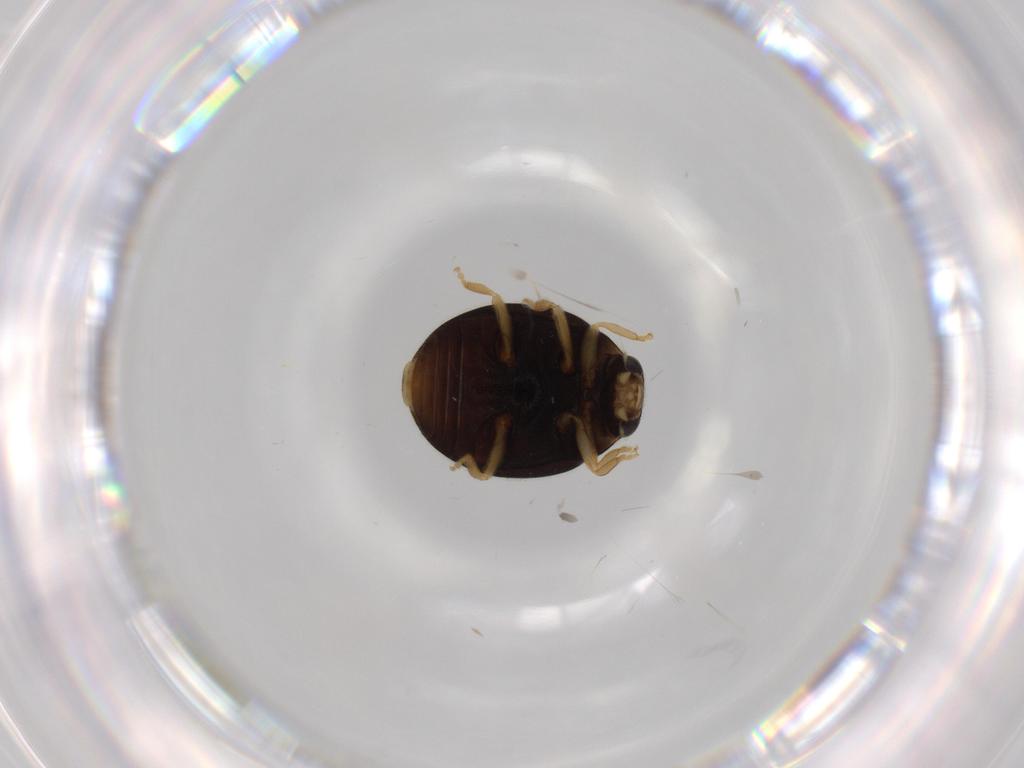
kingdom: Animalia
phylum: Arthropoda
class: Insecta
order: Coleoptera
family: Coccinellidae
